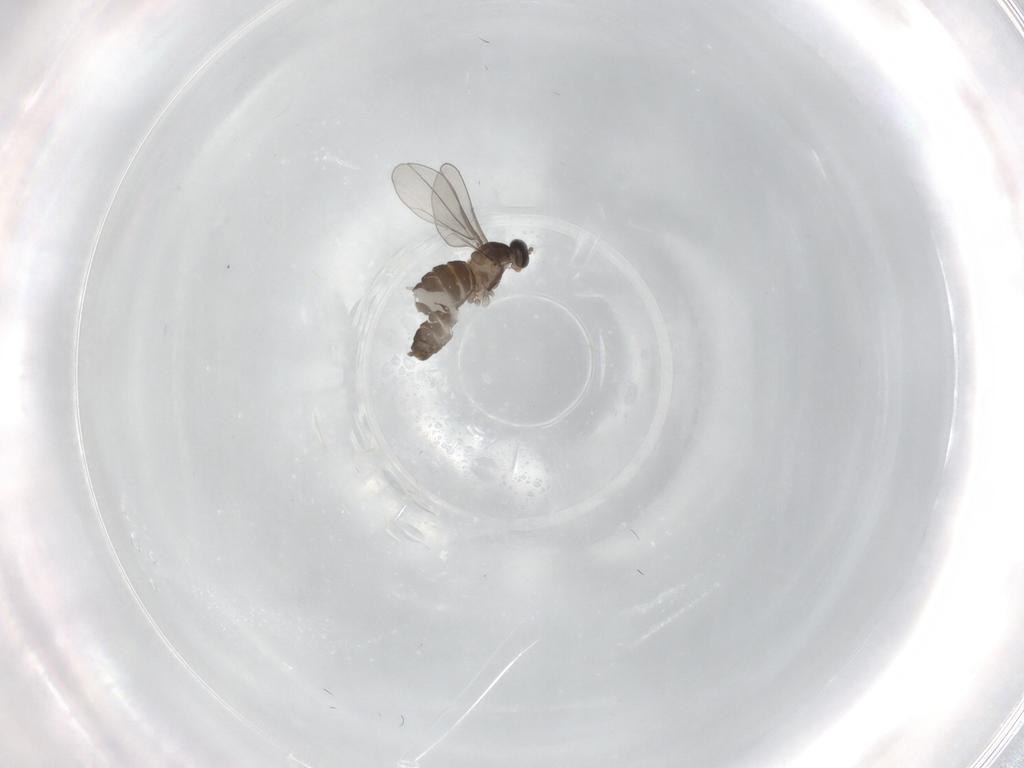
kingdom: Animalia
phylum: Arthropoda
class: Insecta
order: Diptera
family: Cecidomyiidae
